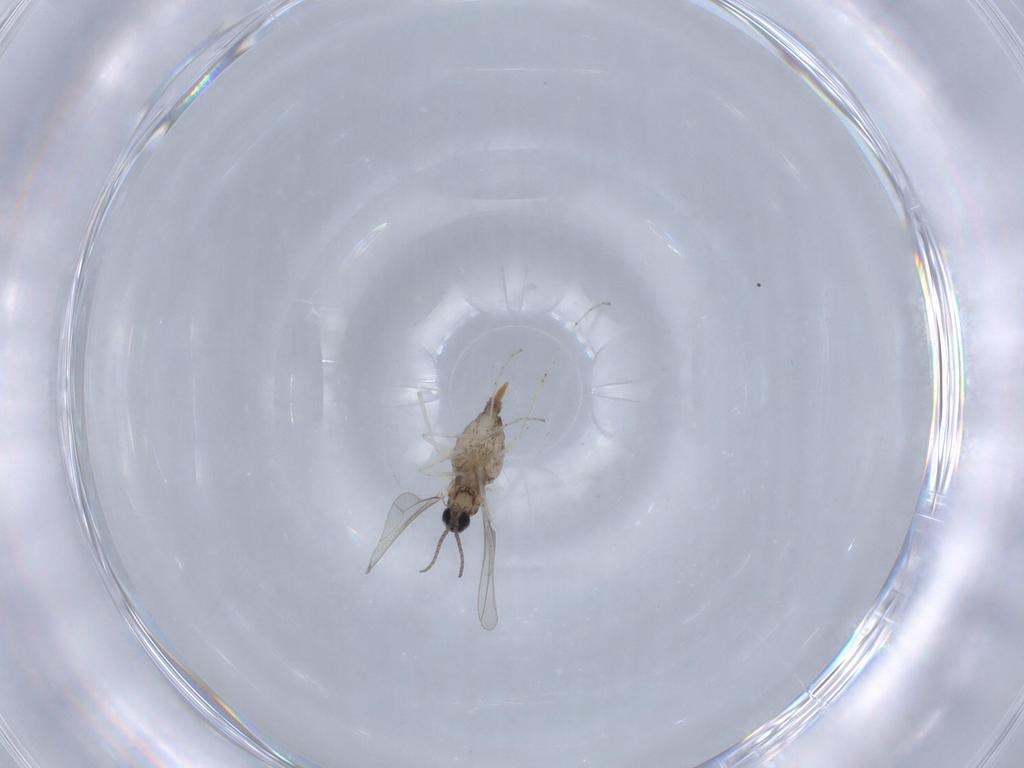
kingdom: Animalia
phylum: Arthropoda
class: Insecta
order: Diptera
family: Cecidomyiidae
